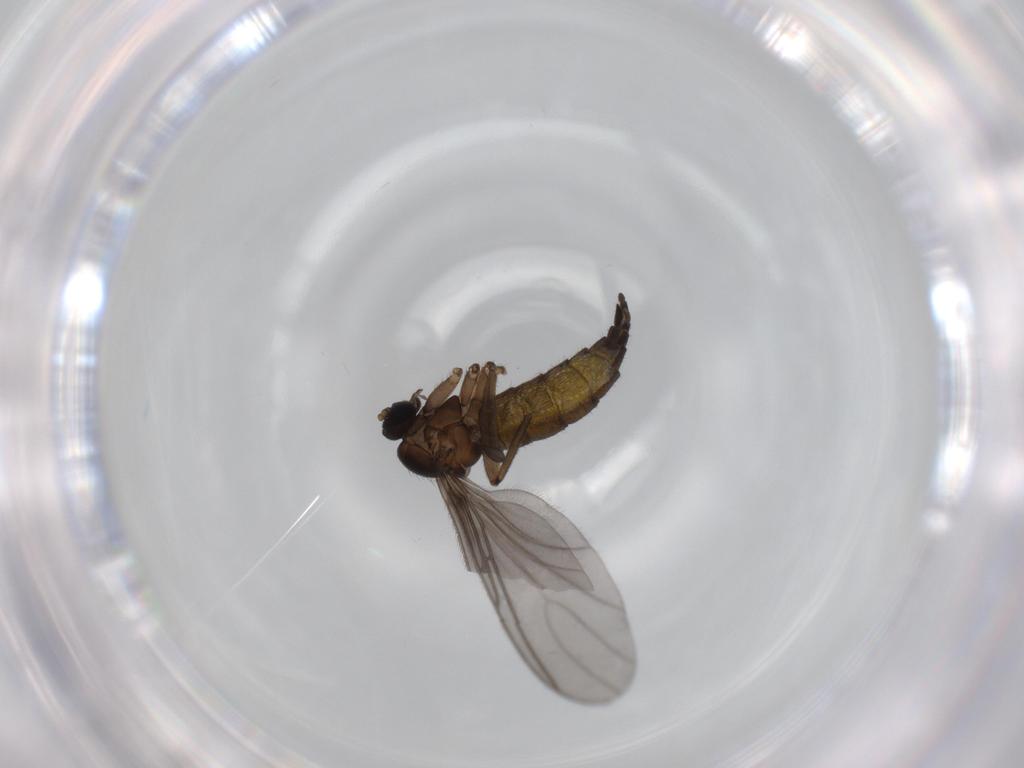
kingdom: Animalia
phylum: Arthropoda
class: Insecta
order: Diptera
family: Sciaridae
